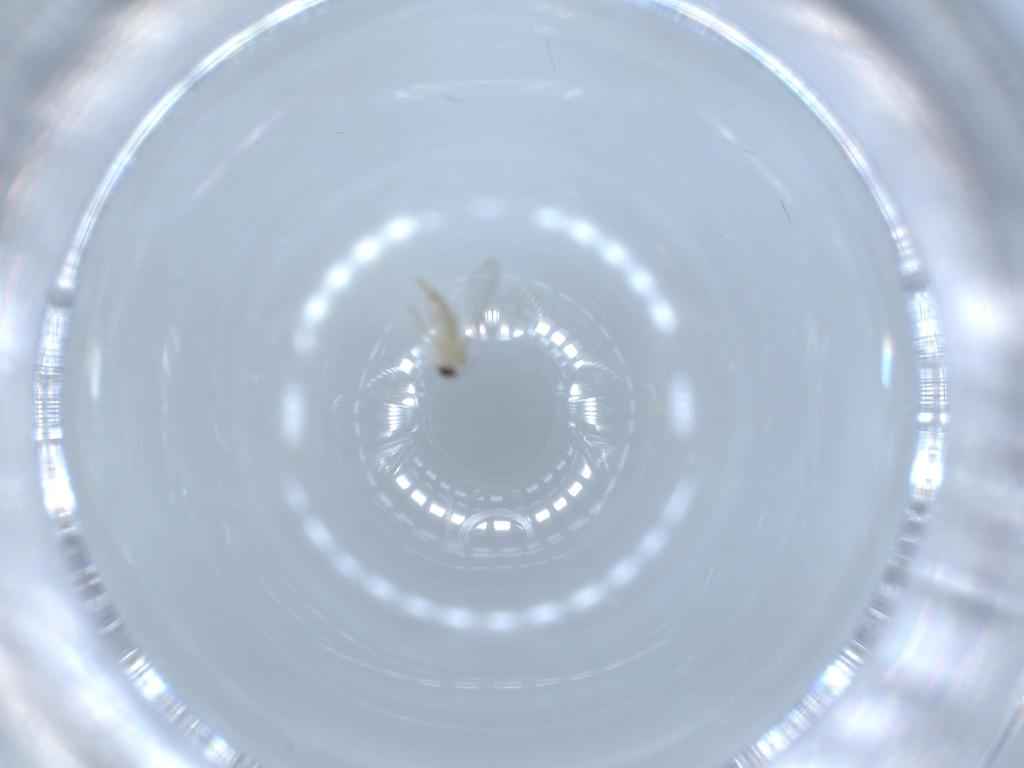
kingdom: Animalia
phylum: Arthropoda
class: Insecta
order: Diptera
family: Cecidomyiidae
